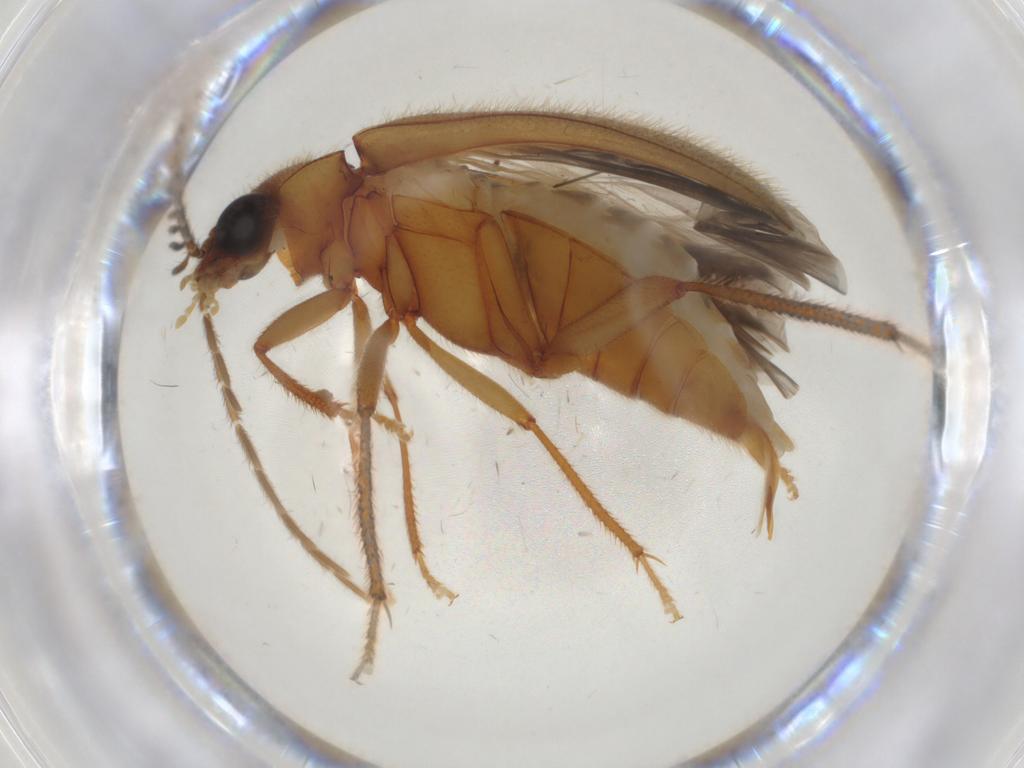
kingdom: Animalia
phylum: Arthropoda
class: Insecta
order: Coleoptera
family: Ptilodactylidae
